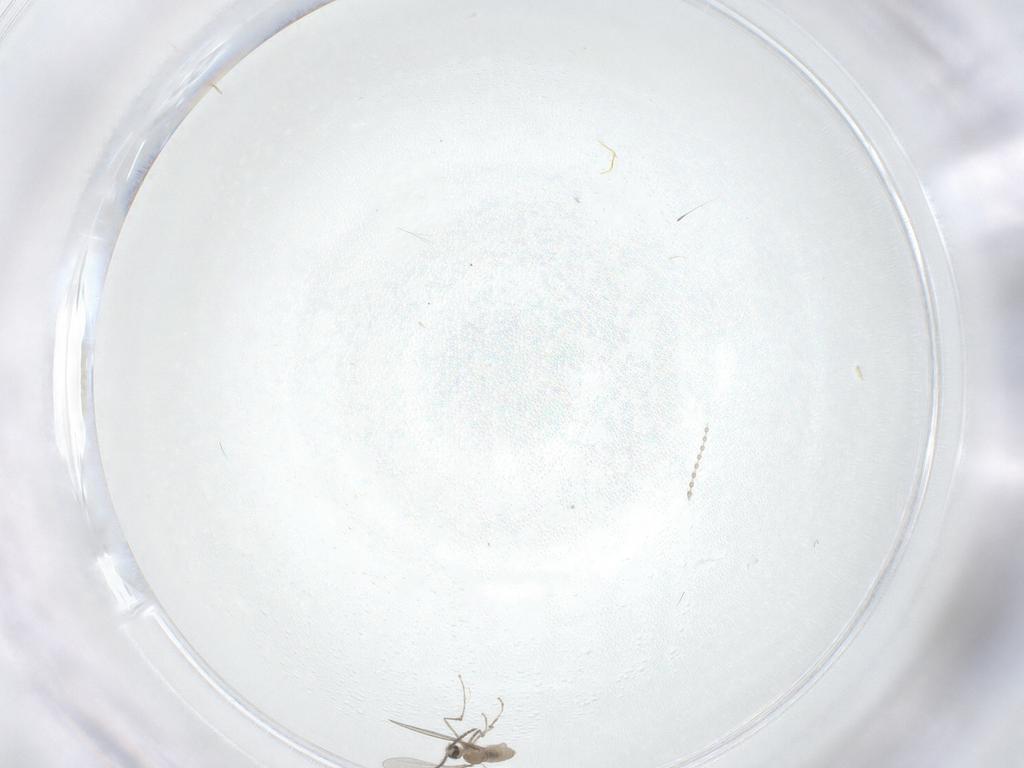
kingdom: Animalia
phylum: Arthropoda
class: Insecta
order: Diptera
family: Cecidomyiidae
